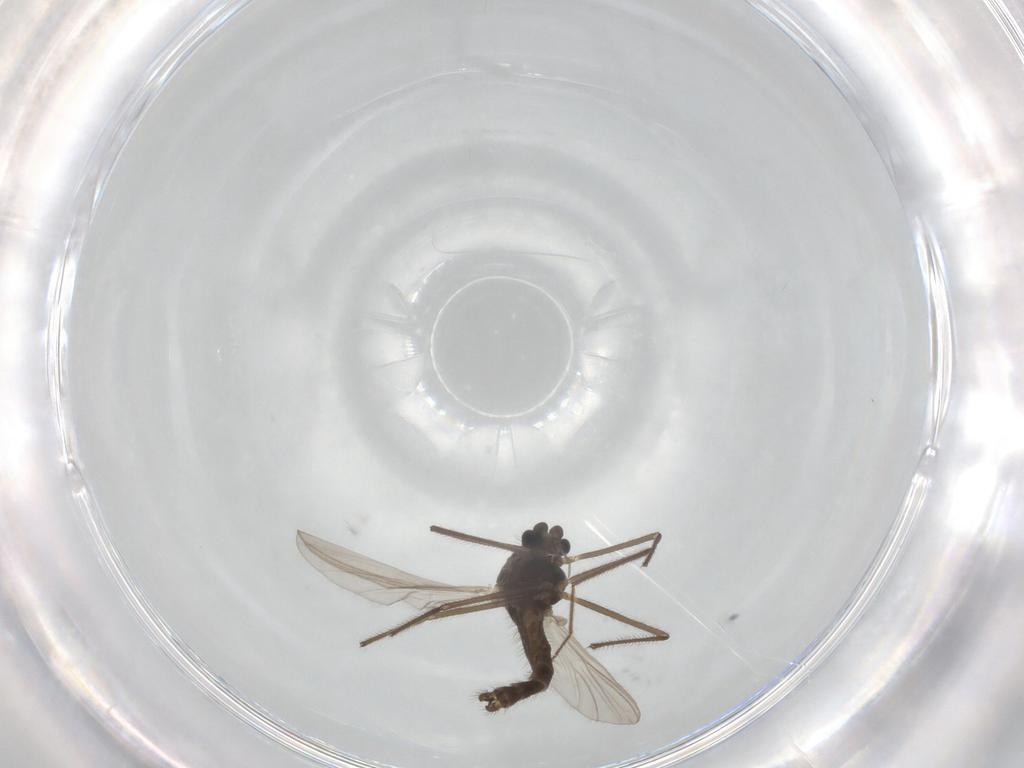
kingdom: Animalia
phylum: Arthropoda
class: Insecta
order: Diptera
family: Chironomidae
